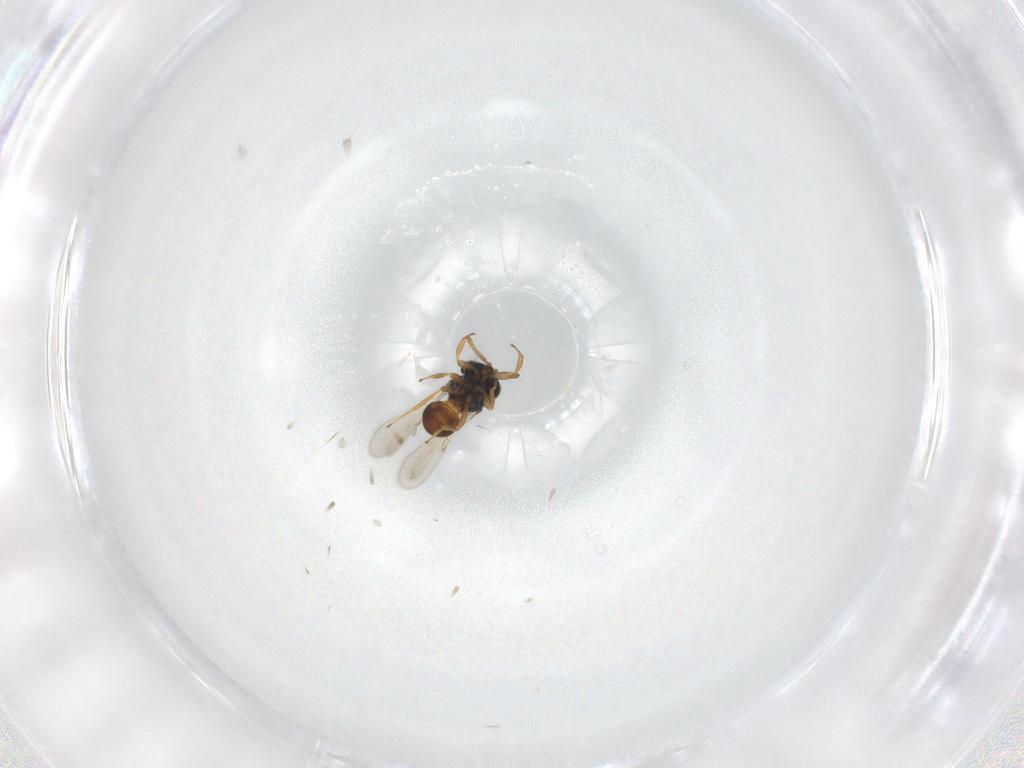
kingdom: Animalia
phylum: Arthropoda
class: Insecta
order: Hymenoptera
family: Scelionidae
